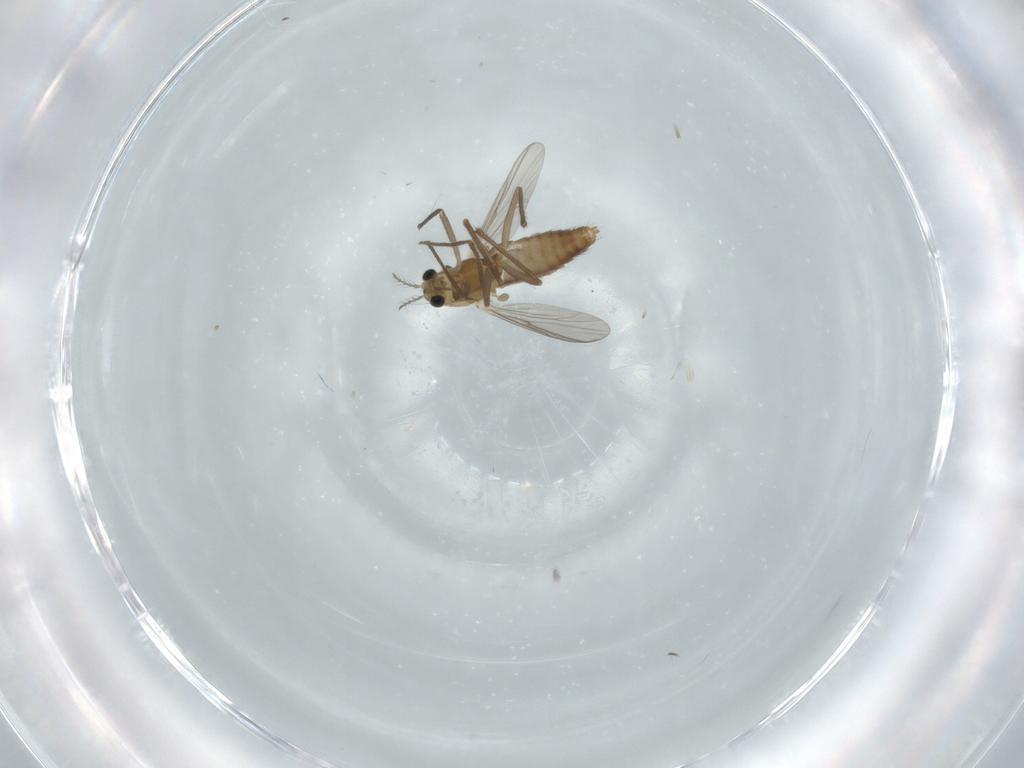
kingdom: Animalia
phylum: Arthropoda
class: Insecta
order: Diptera
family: Chironomidae
